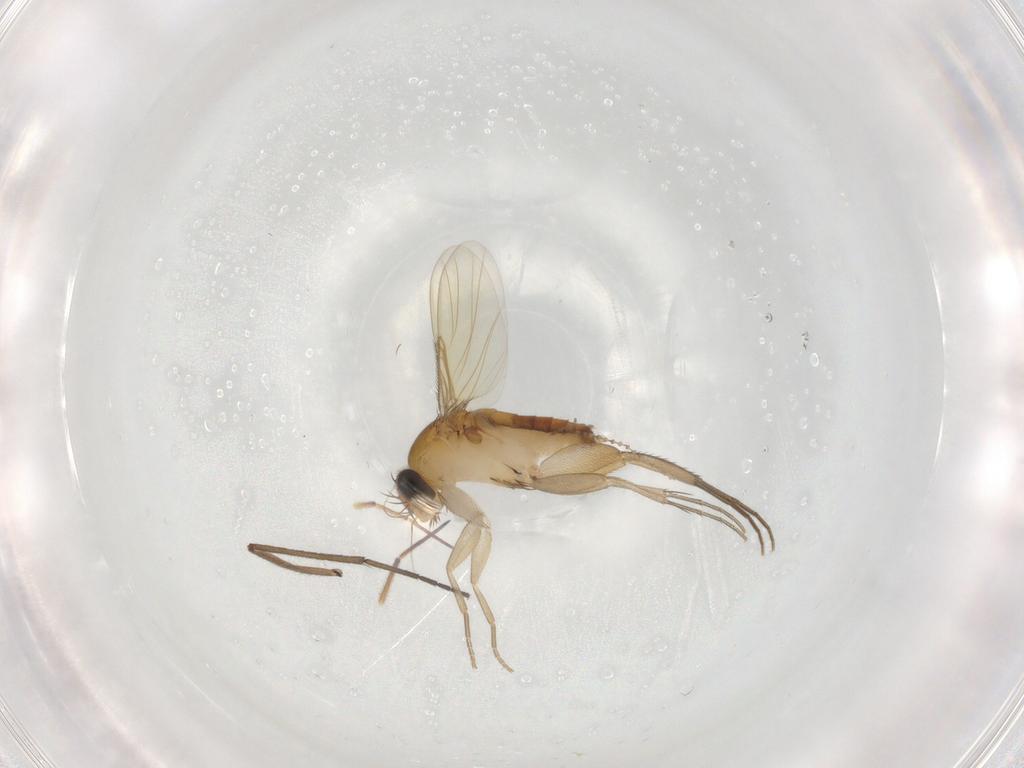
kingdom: Animalia
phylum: Arthropoda
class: Insecta
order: Diptera
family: Phoridae
